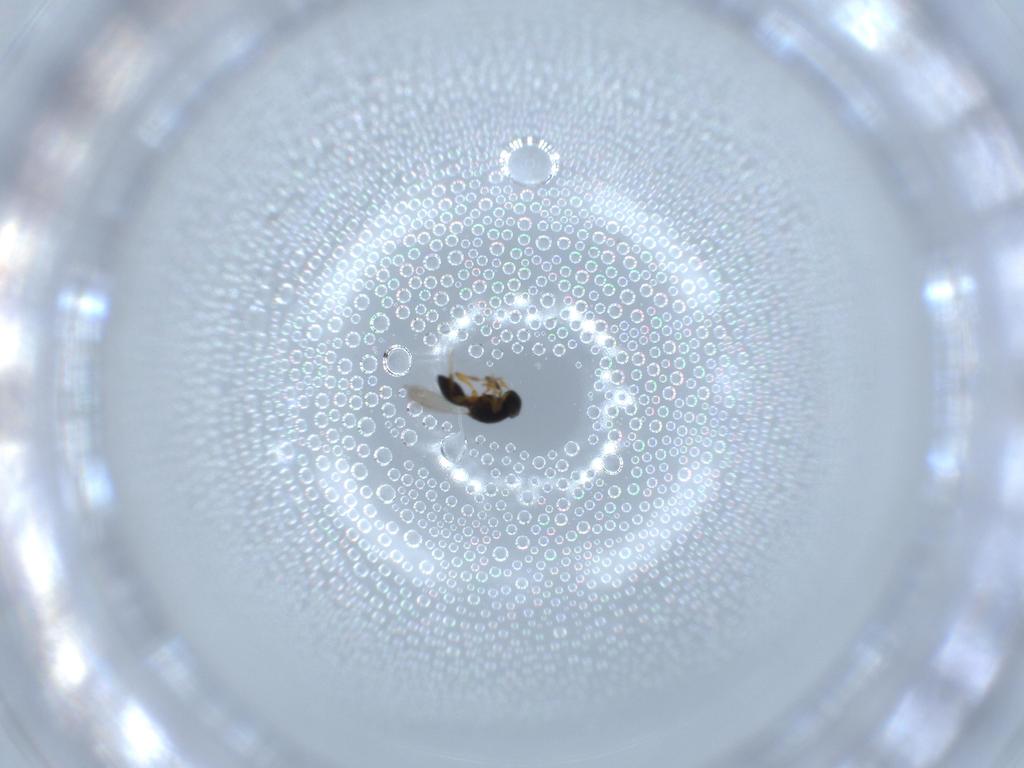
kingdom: Animalia
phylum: Arthropoda
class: Insecta
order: Hymenoptera
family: Platygastridae
